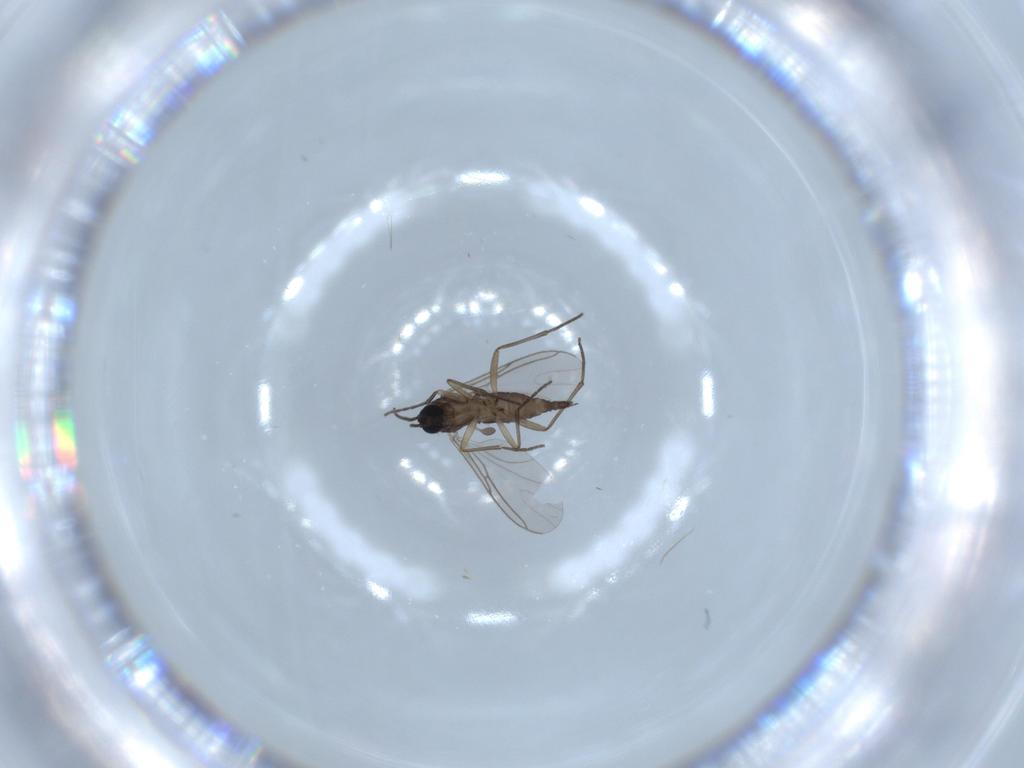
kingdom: Animalia
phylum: Arthropoda
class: Insecta
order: Diptera
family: Sciaridae
